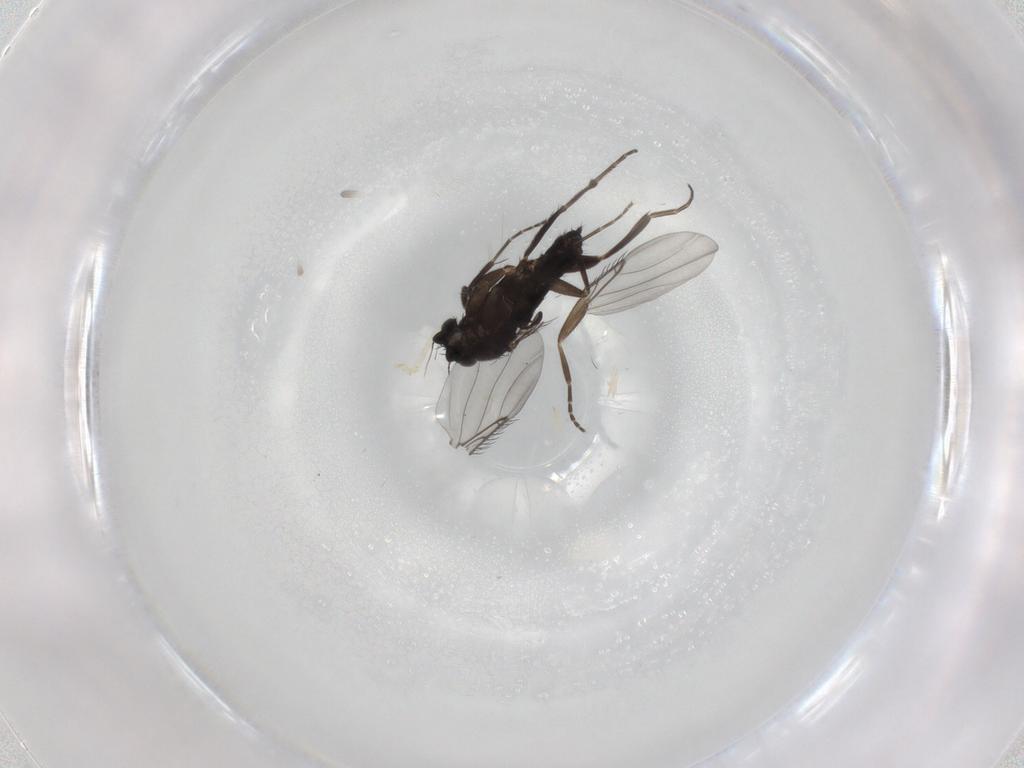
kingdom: Animalia
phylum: Arthropoda
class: Insecta
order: Diptera
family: Phoridae
